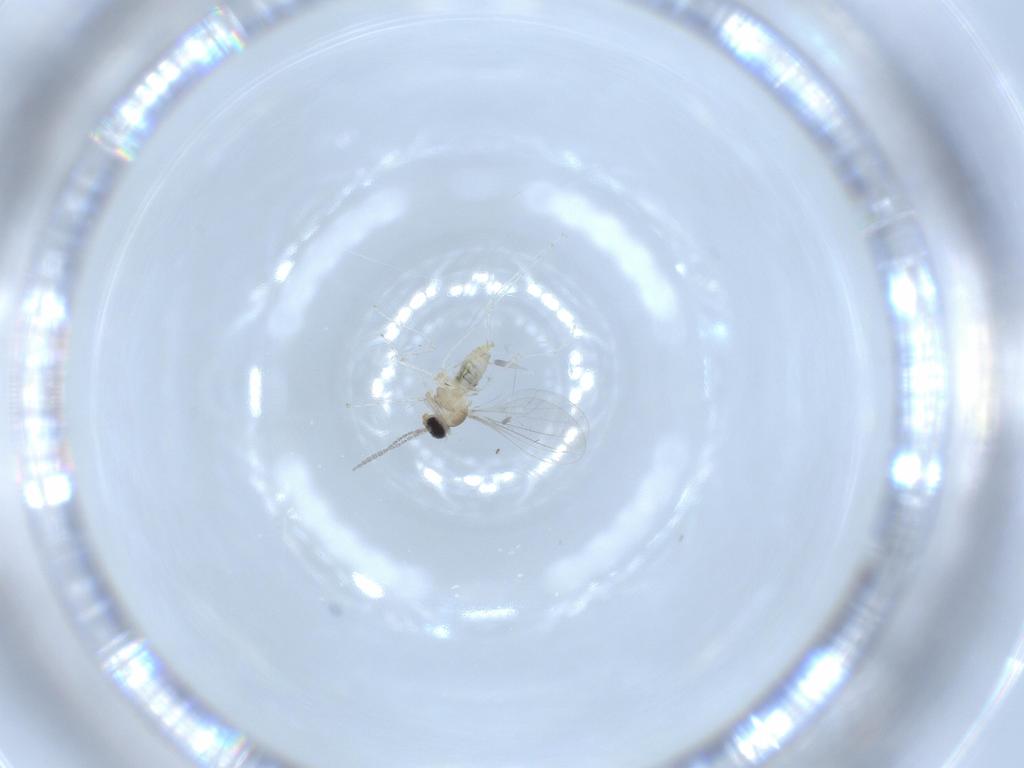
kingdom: Animalia
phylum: Arthropoda
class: Insecta
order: Diptera
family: Cecidomyiidae
